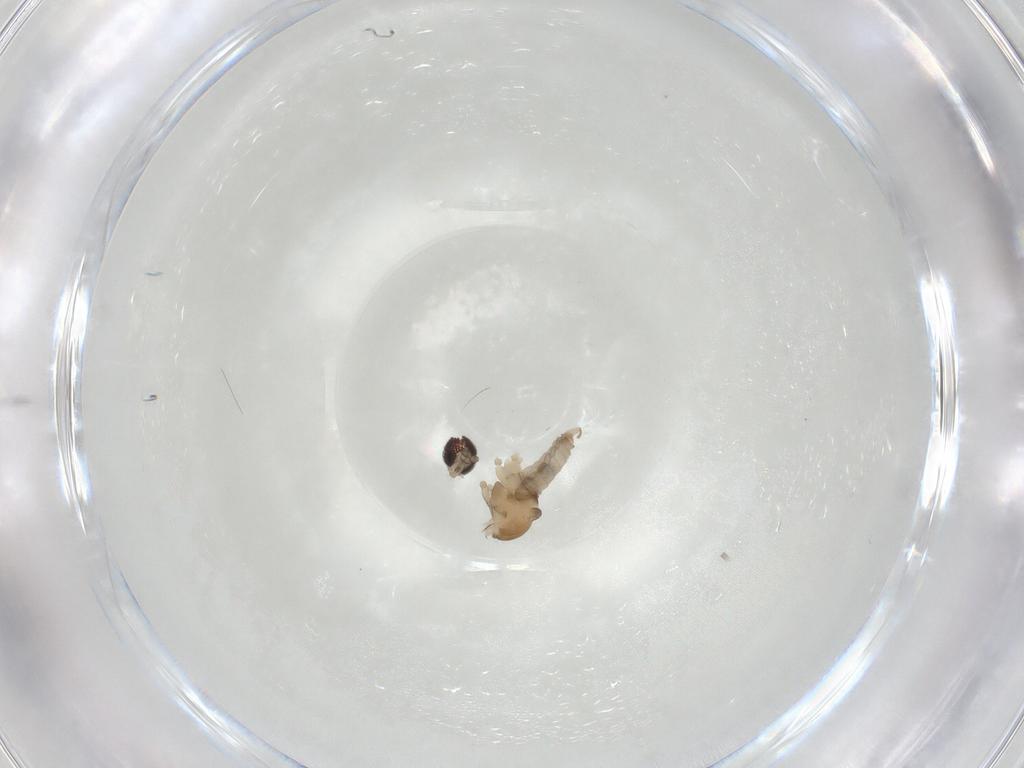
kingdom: Animalia
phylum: Arthropoda
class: Insecta
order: Diptera
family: Cecidomyiidae
